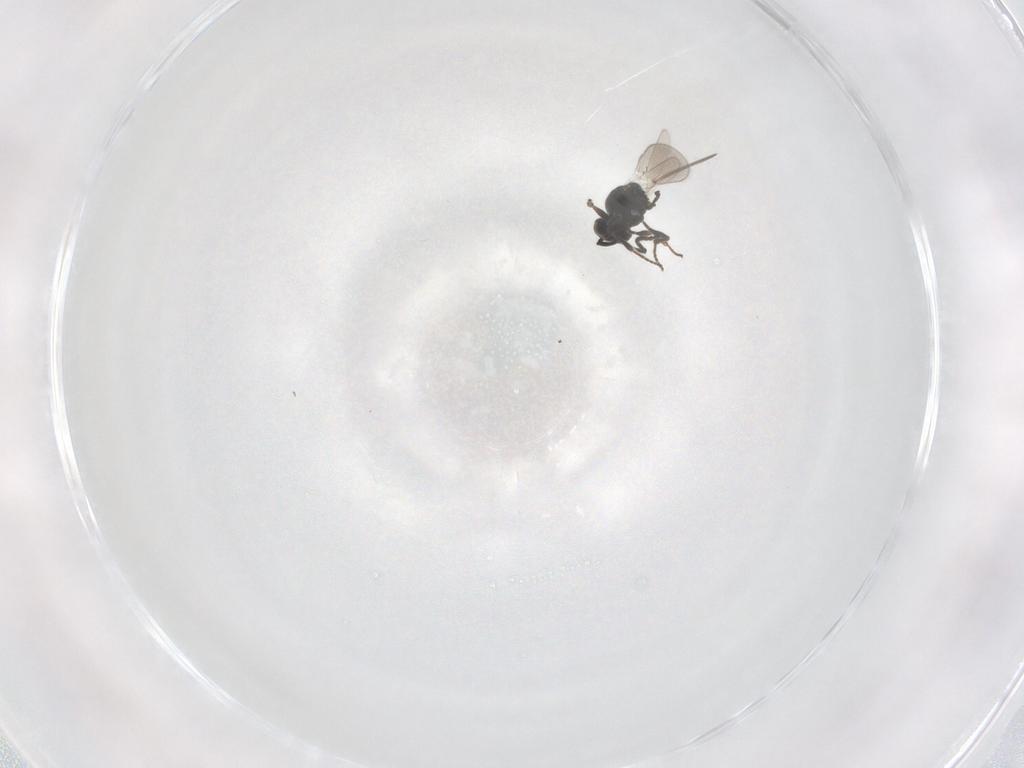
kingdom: Animalia
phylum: Arthropoda
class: Insecta
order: Hymenoptera
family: Platygastridae
